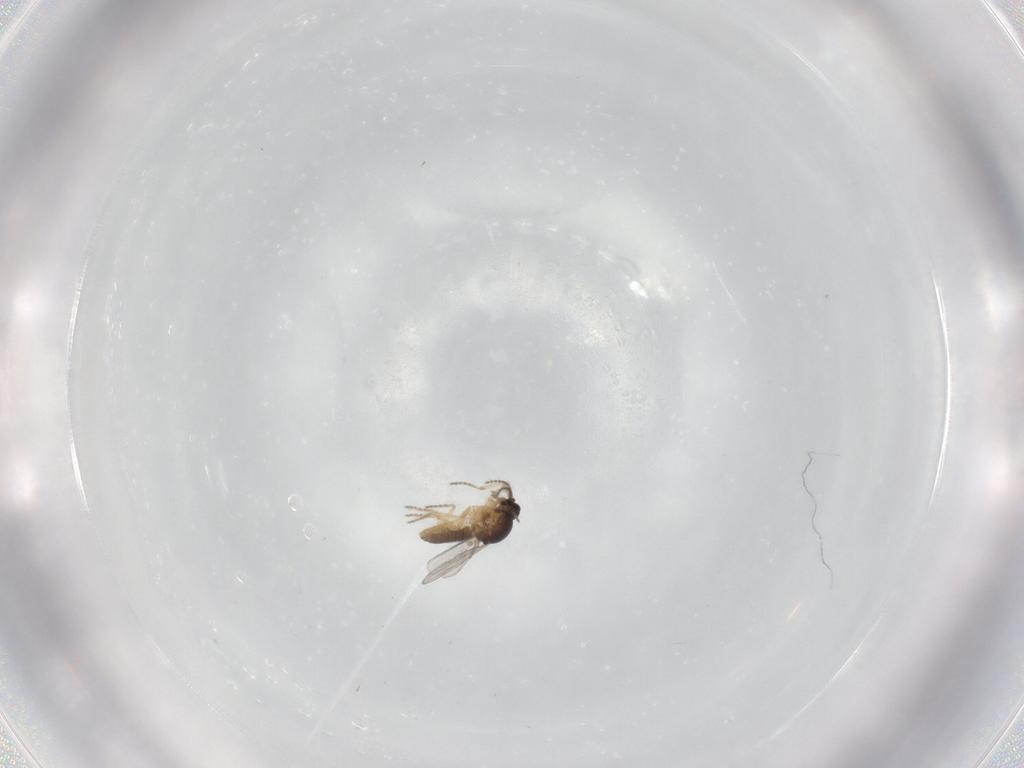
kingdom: Animalia
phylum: Arthropoda
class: Insecta
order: Diptera
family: Ceratopogonidae
